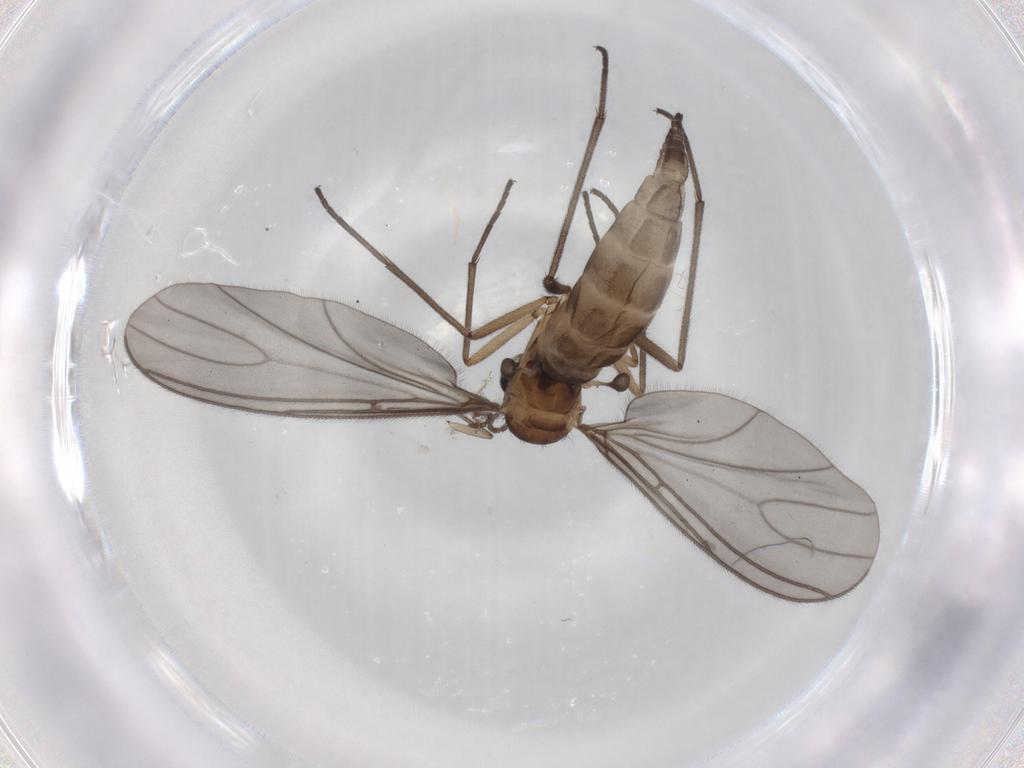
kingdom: Animalia
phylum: Arthropoda
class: Insecta
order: Diptera
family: Sciaridae
